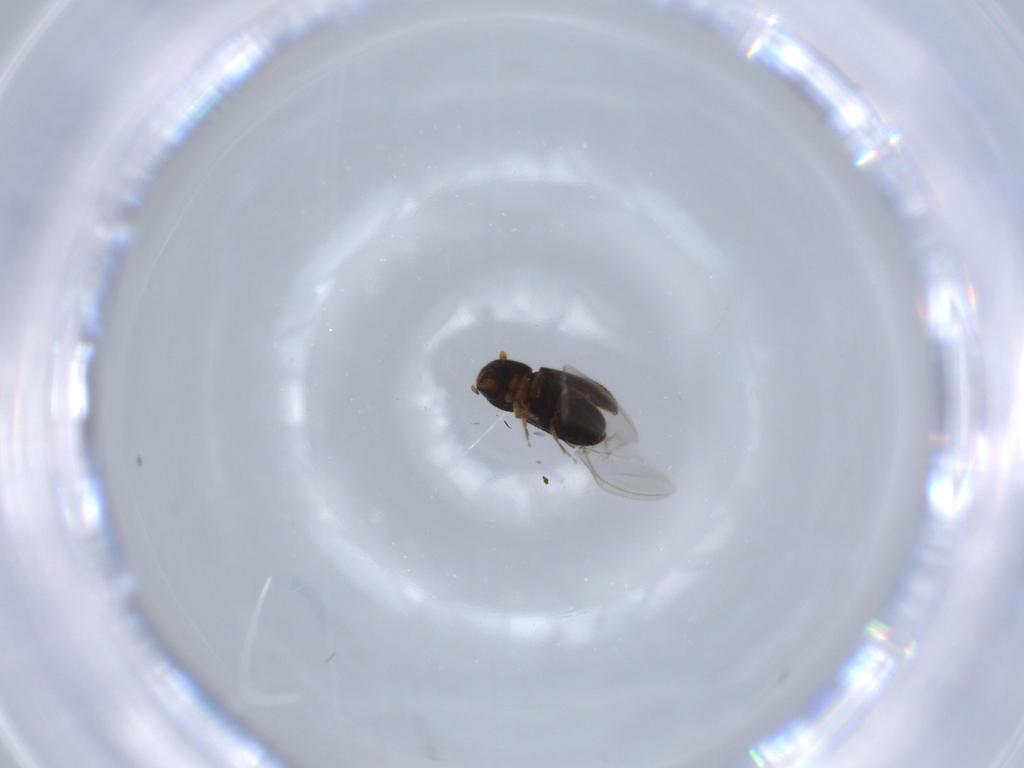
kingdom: Animalia
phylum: Arthropoda
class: Insecta
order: Coleoptera
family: Curculionidae
